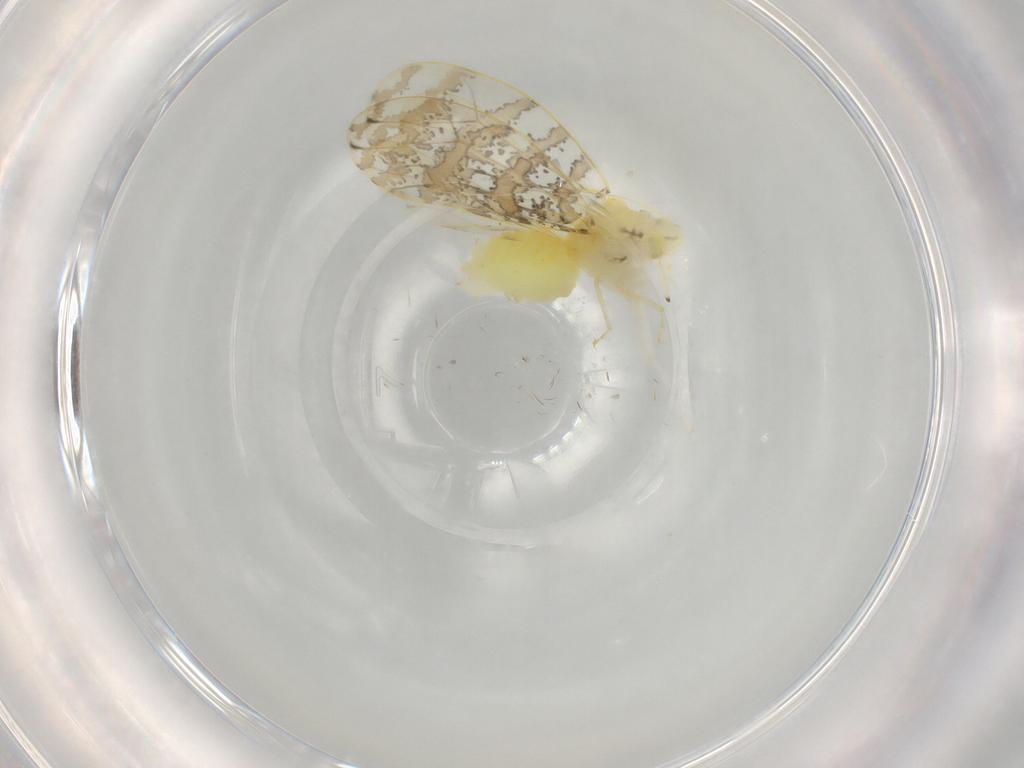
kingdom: Animalia
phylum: Arthropoda
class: Insecta
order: Hemiptera
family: Aleyrodidae
